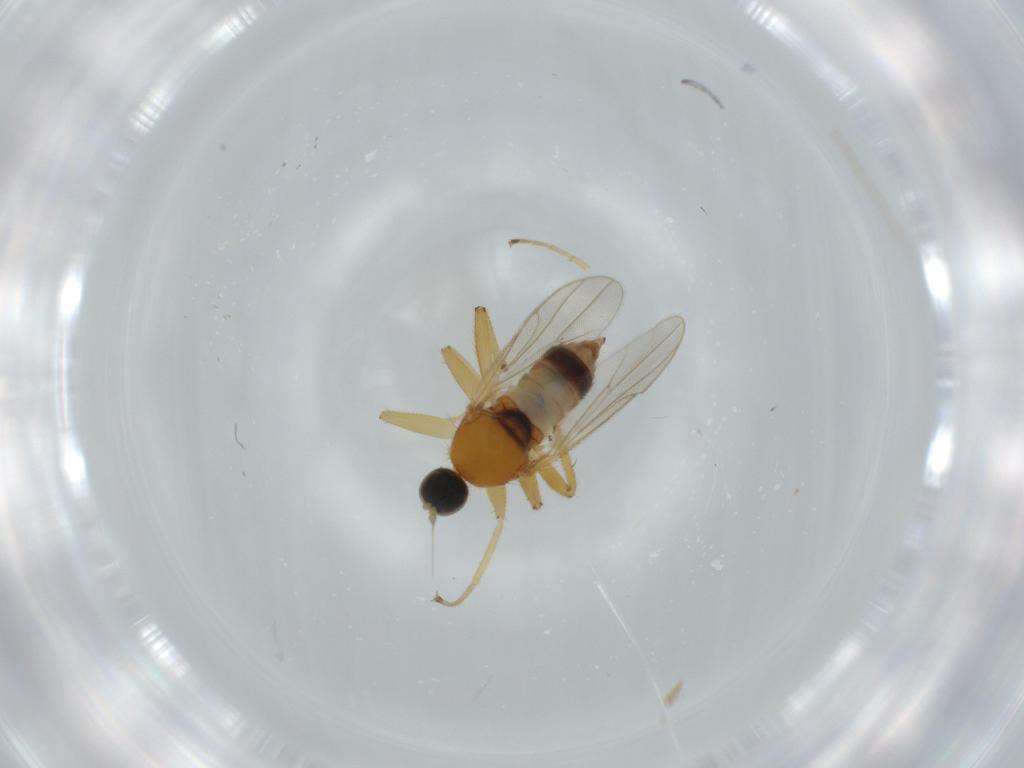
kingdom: Animalia
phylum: Arthropoda
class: Insecta
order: Diptera
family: Hybotidae
